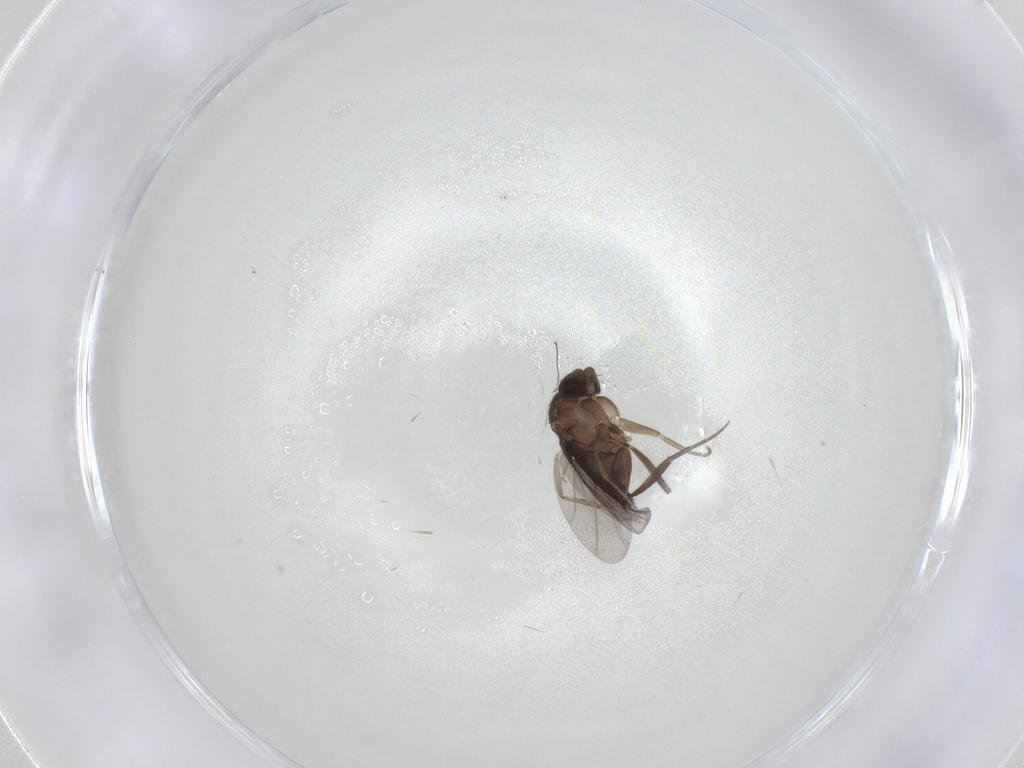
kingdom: Animalia
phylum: Arthropoda
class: Insecta
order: Diptera
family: Phoridae
